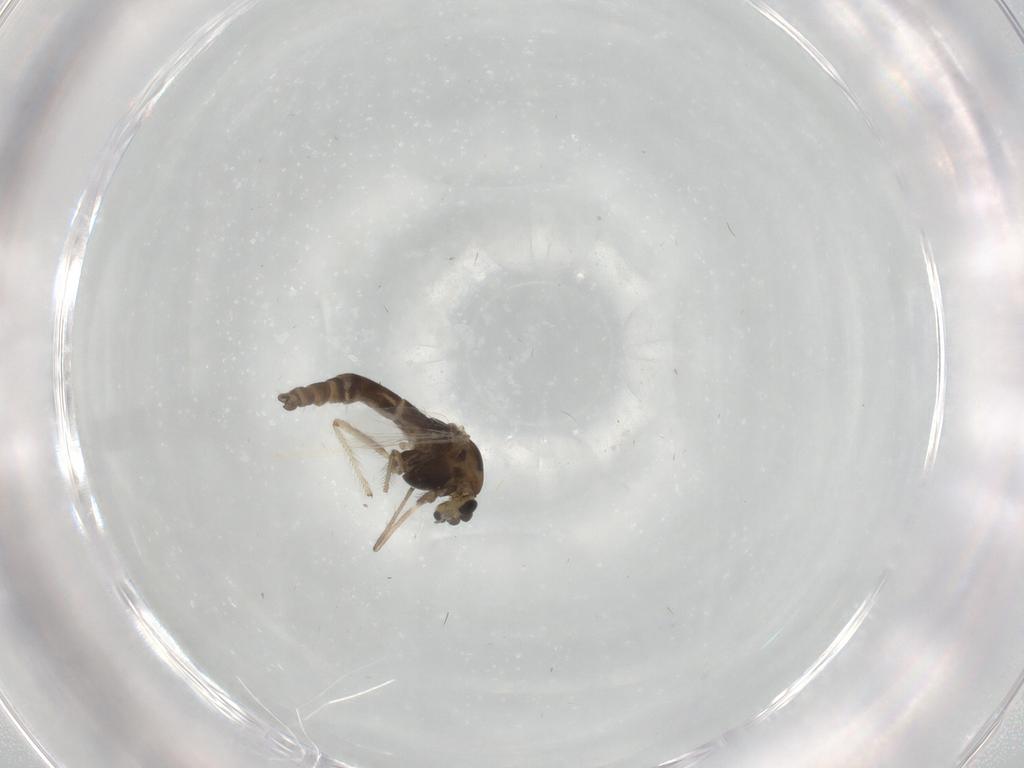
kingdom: Animalia
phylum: Arthropoda
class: Insecta
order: Diptera
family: Chironomidae
